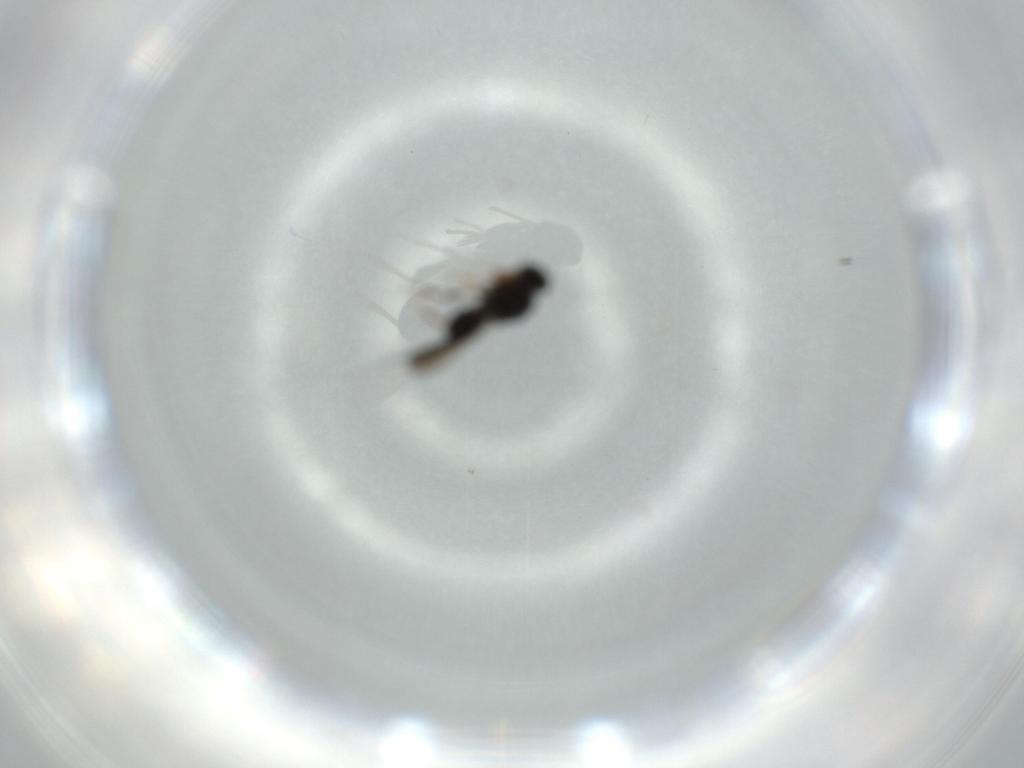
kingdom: Animalia
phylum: Arthropoda
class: Insecta
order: Hymenoptera
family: Platygastridae
